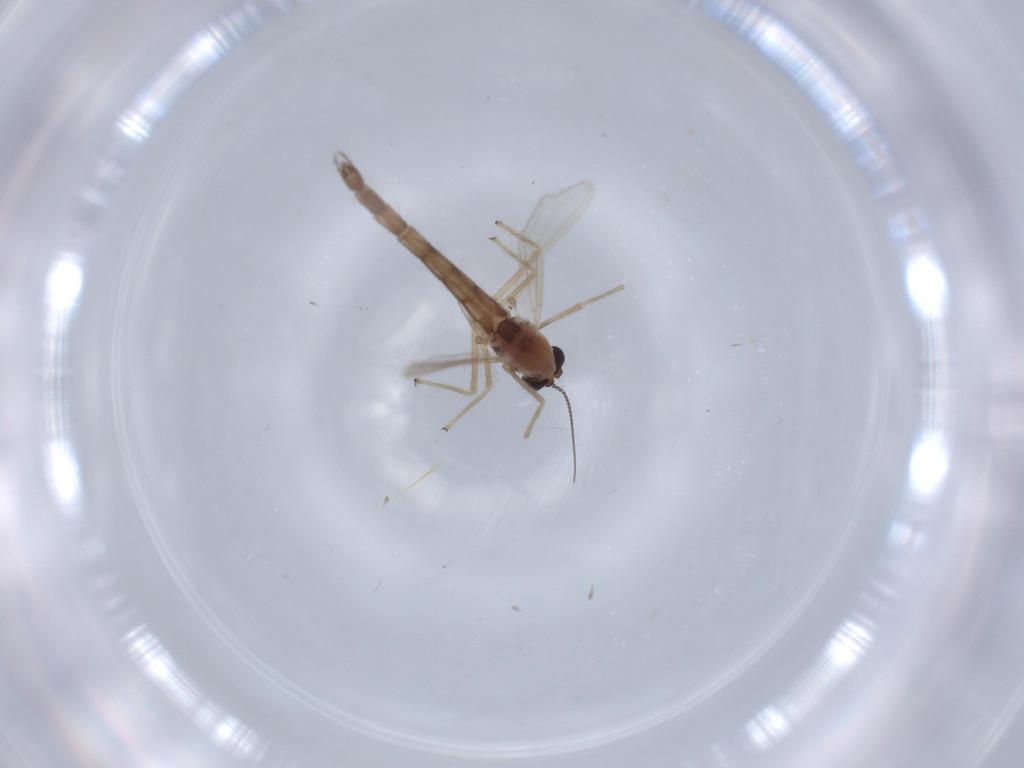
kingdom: Animalia
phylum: Arthropoda
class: Insecta
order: Diptera
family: Chironomidae
